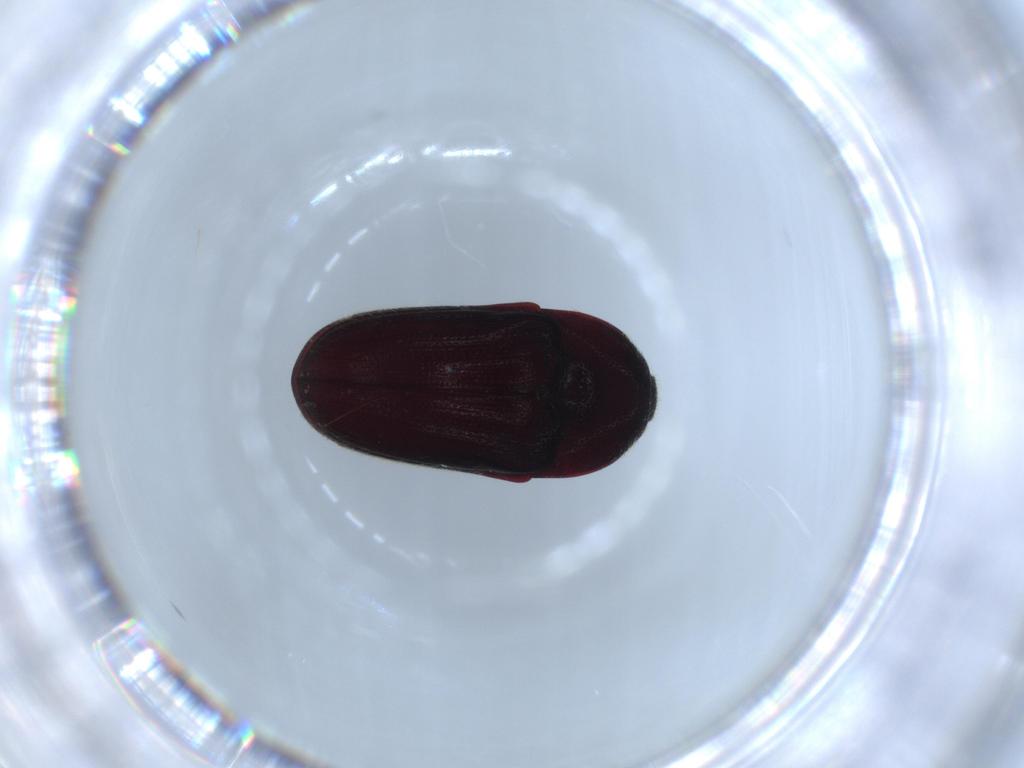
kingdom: Animalia
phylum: Arthropoda
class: Insecta
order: Coleoptera
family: Throscidae
